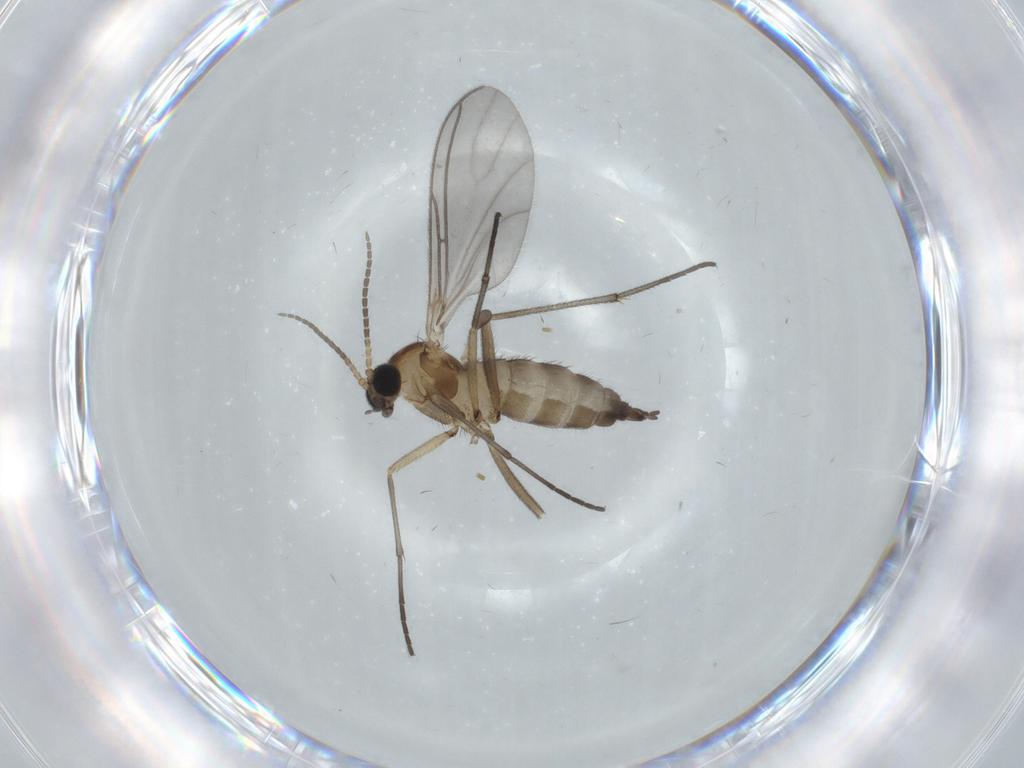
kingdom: Animalia
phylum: Arthropoda
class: Insecta
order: Diptera
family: Sciaridae
